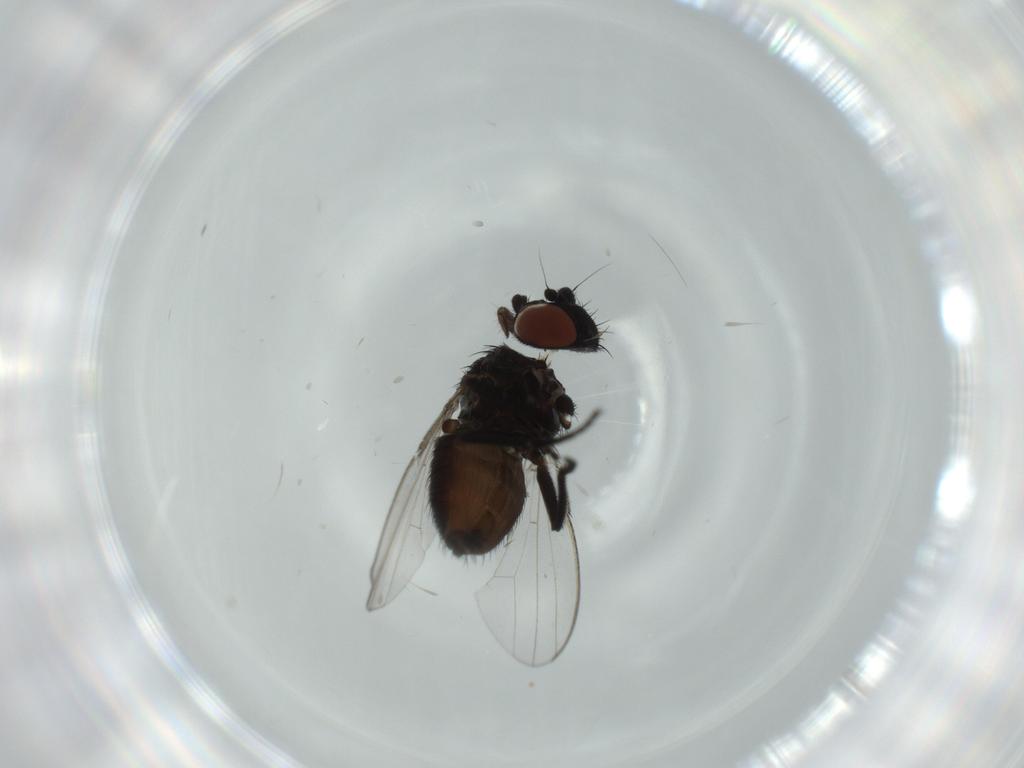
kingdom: Animalia
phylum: Arthropoda
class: Insecta
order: Diptera
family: Milichiidae
